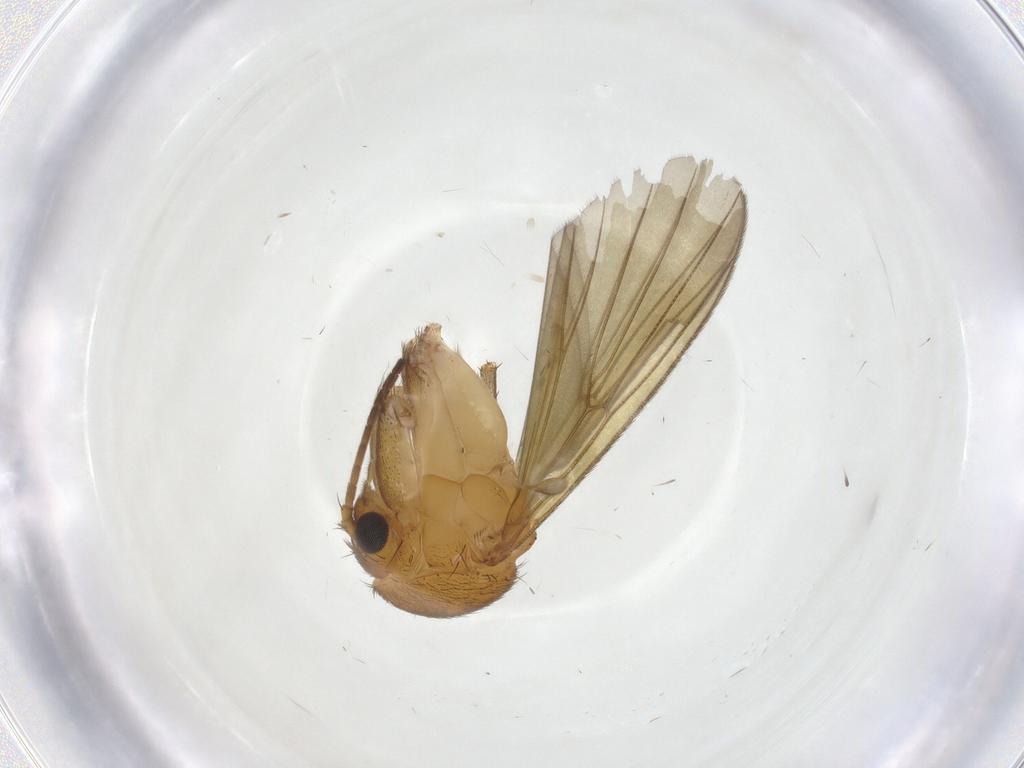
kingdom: Animalia
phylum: Arthropoda
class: Insecta
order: Diptera
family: Mycetophilidae
